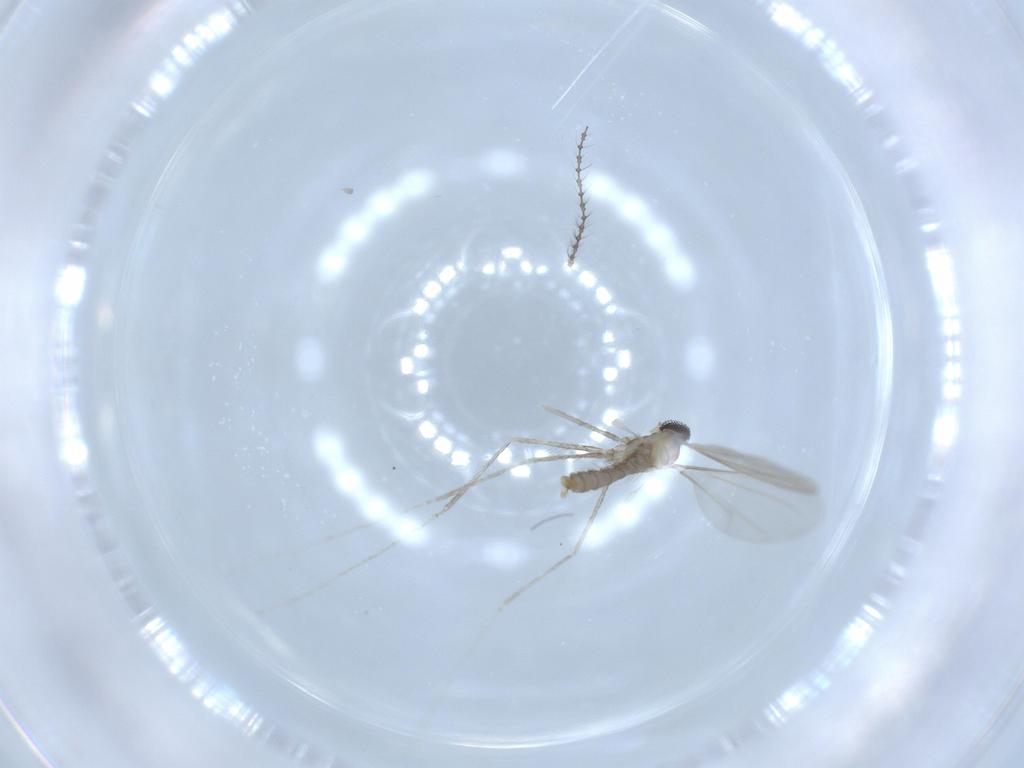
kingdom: Animalia
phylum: Arthropoda
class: Insecta
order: Diptera
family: Cecidomyiidae
